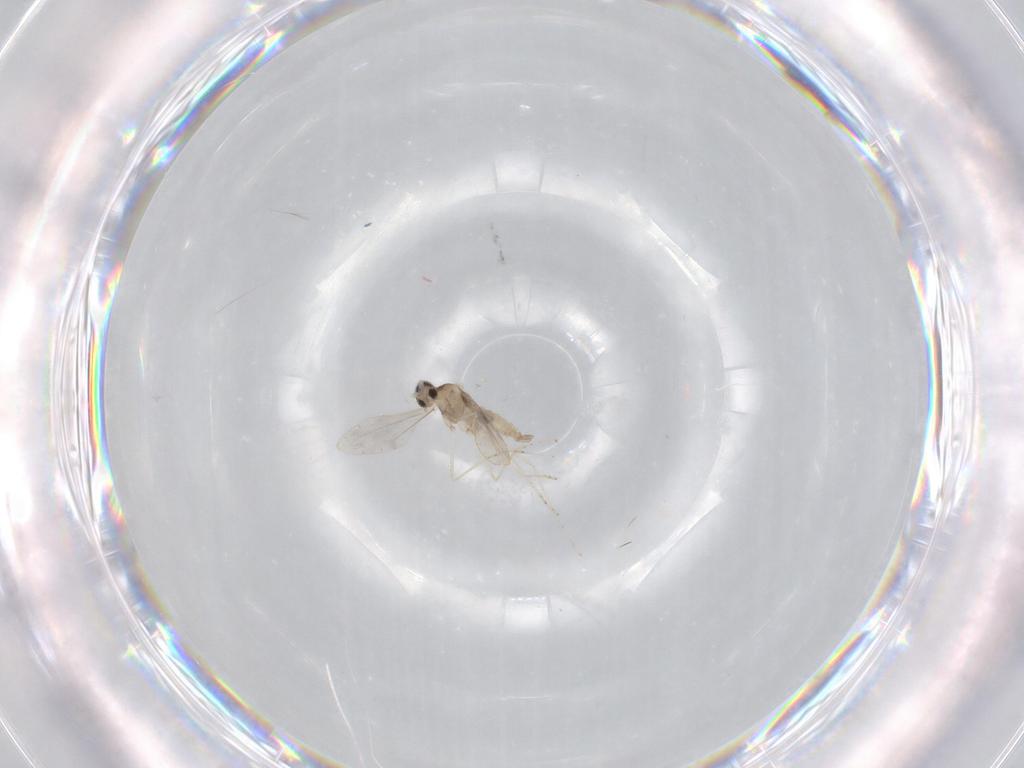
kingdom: Animalia
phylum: Arthropoda
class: Insecta
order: Diptera
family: Cecidomyiidae
